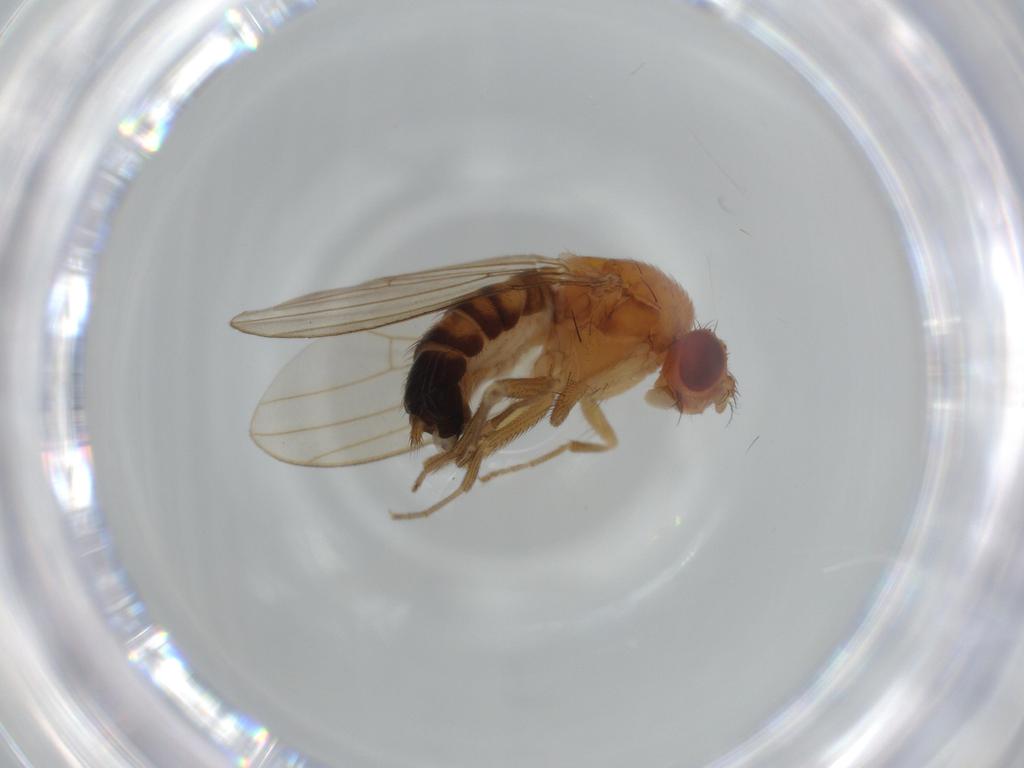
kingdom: Animalia
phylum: Arthropoda
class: Insecta
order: Diptera
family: Drosophilidae
